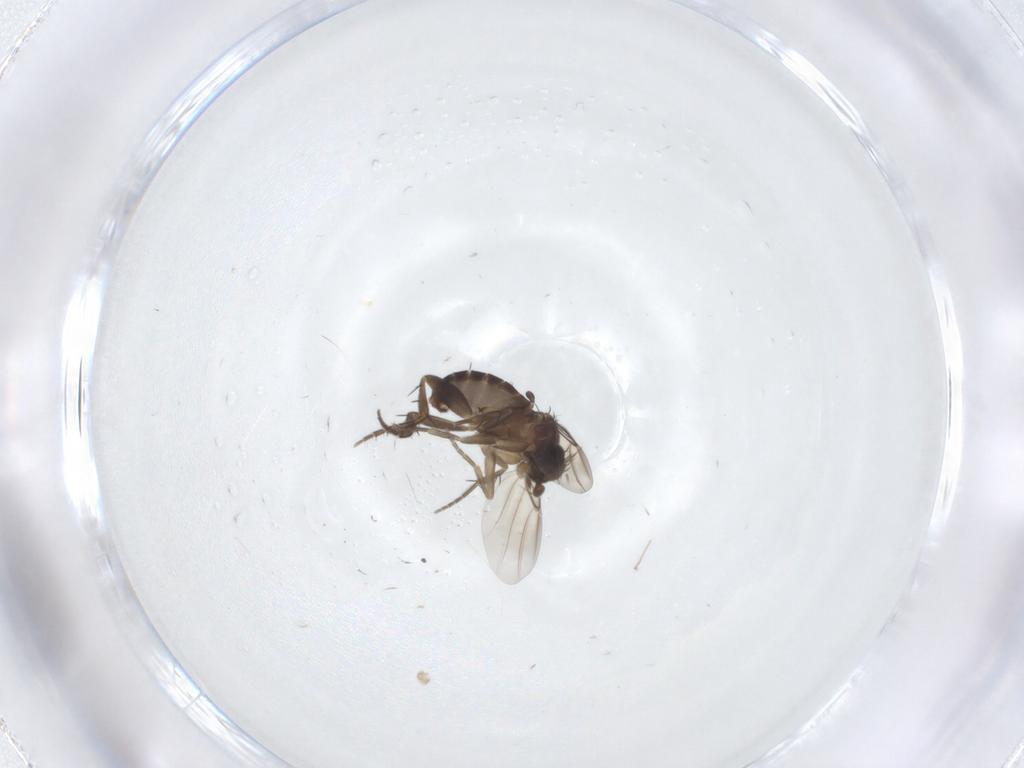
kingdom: Animalia
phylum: Arthropoda
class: Insecta
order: Diptera
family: Phoridae
